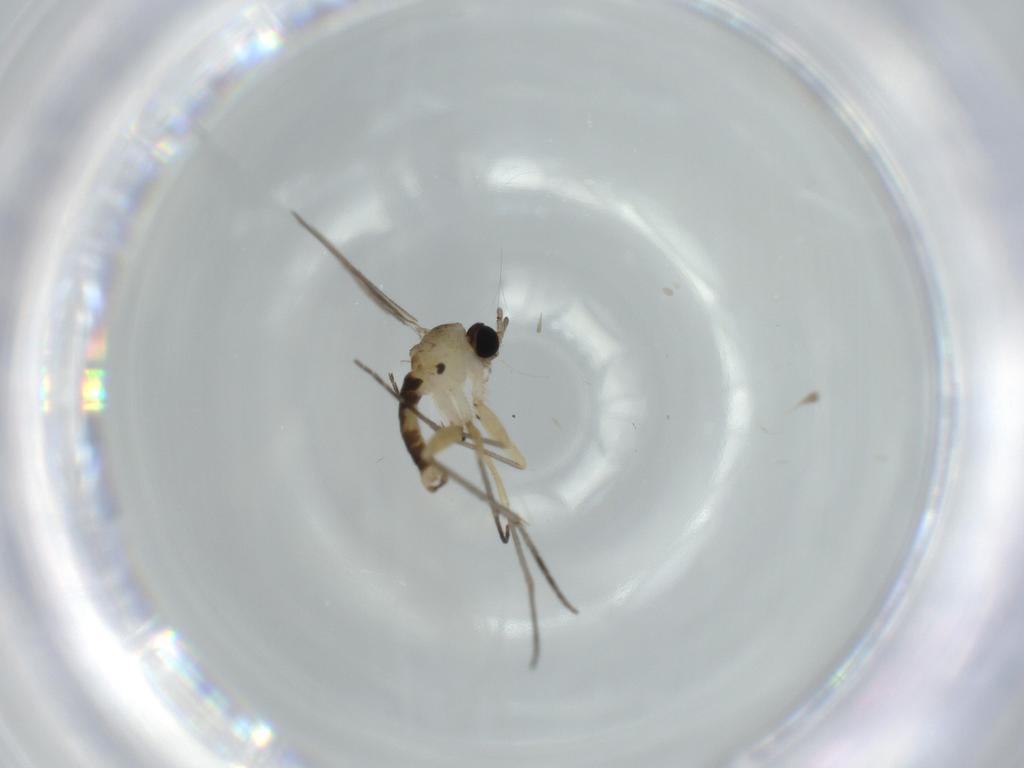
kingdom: Animalia
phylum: Arthropoda
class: Insecta
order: Diptera
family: Sciaridae
